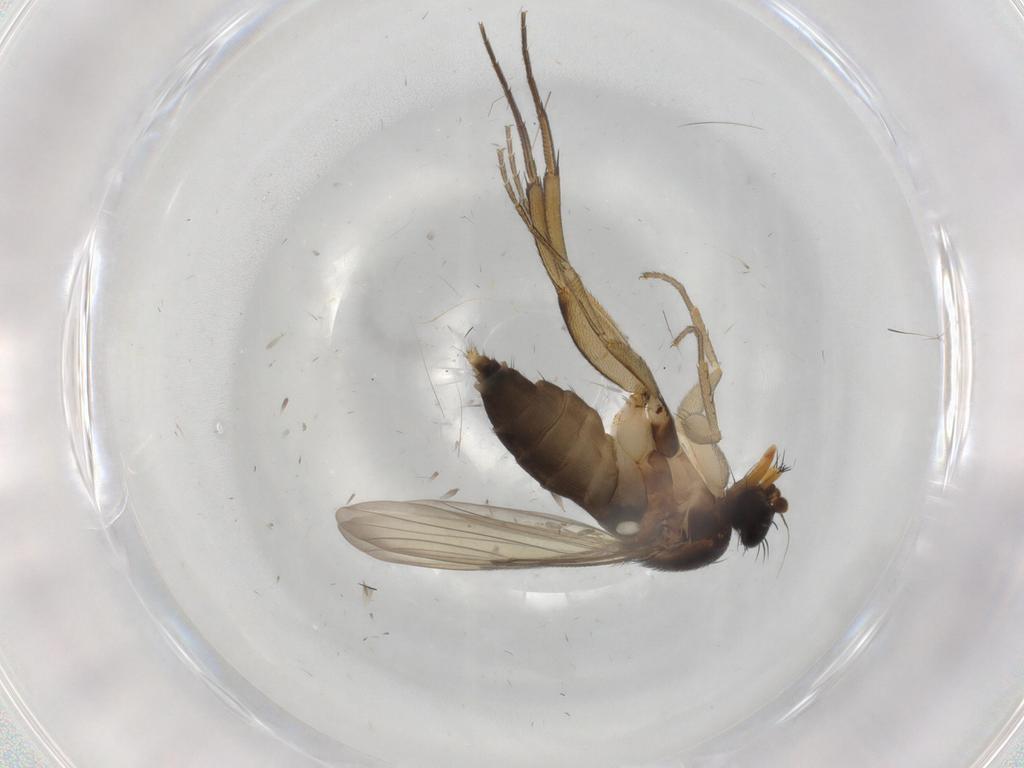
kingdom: Animalia
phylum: Arthropoda
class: Insecta
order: Diptera
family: Phoridae
